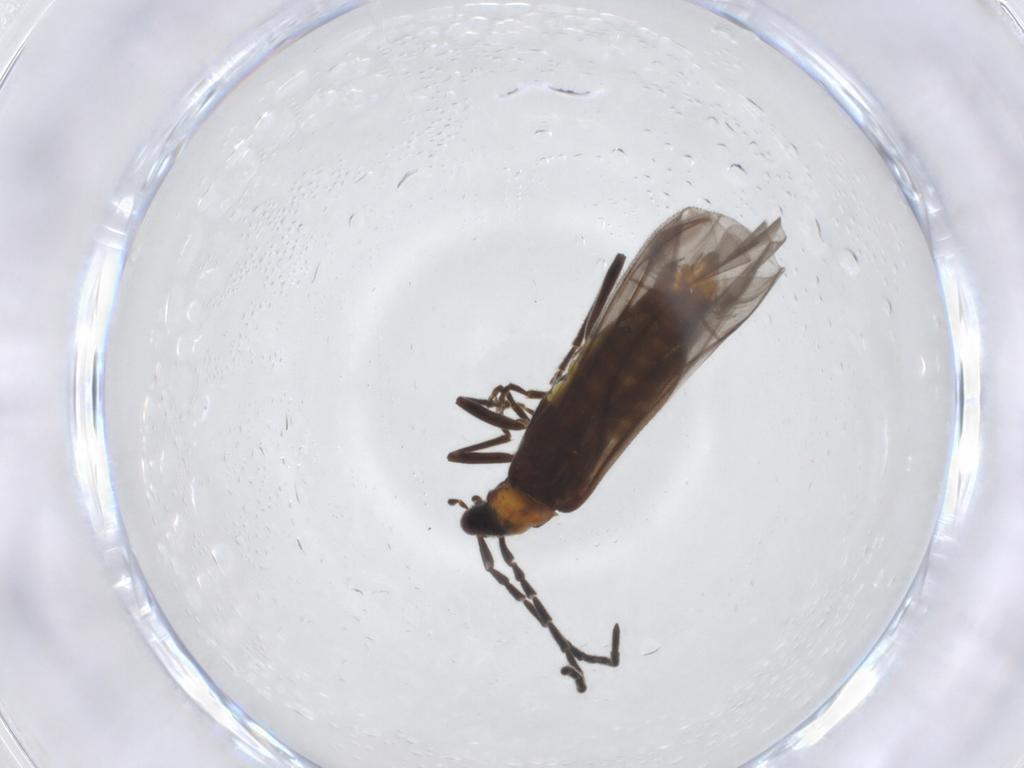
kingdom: Animalia
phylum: Arthropoda
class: Insecta
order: Coleoptera
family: Cantharidae
